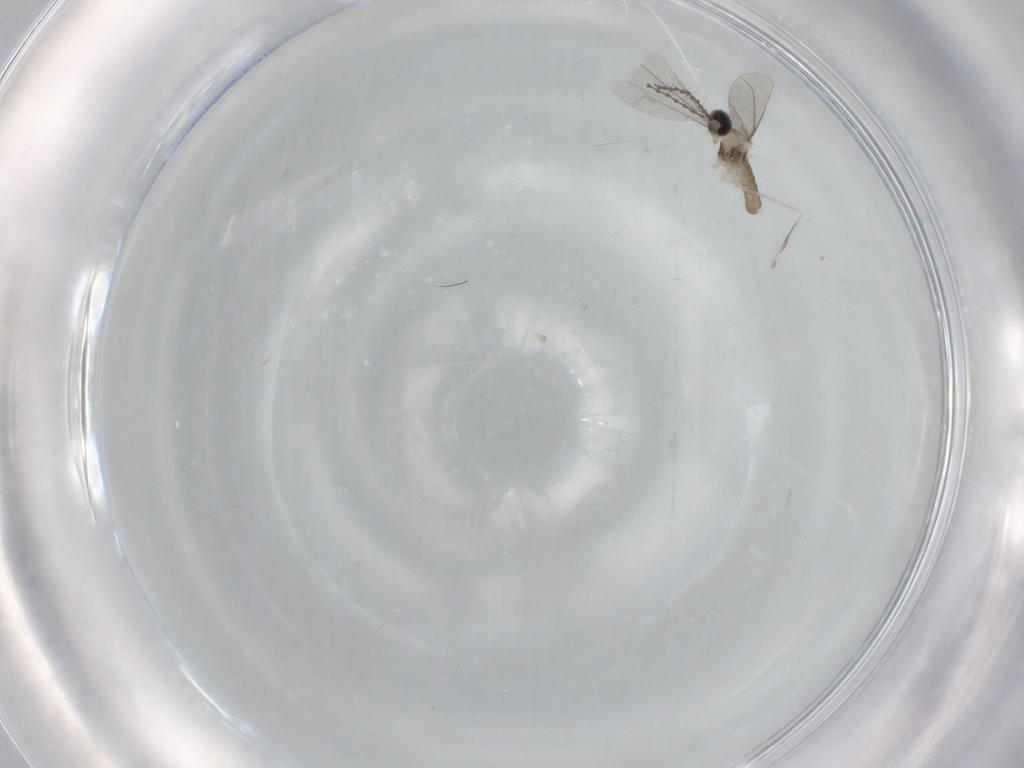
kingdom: Animalia
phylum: Arthropoda
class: Insecta
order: Diptera
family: Cecidomyiidae
